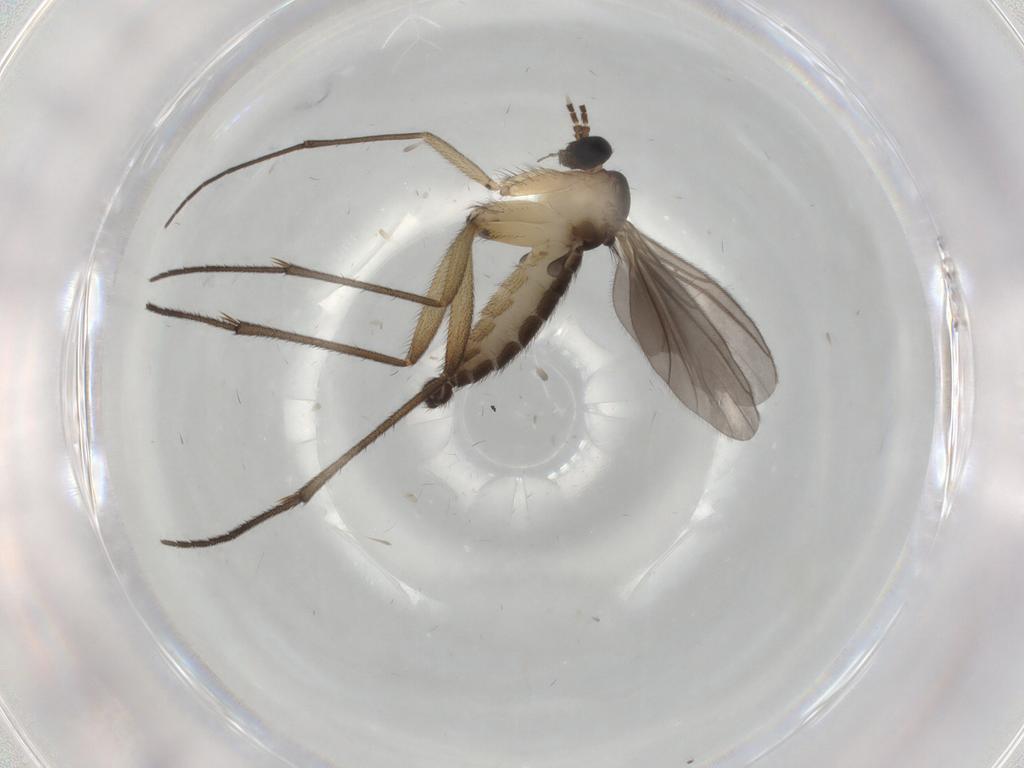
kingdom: Animalia
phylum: Arthropoda
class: Insecta
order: Diptera
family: Sciaridae
